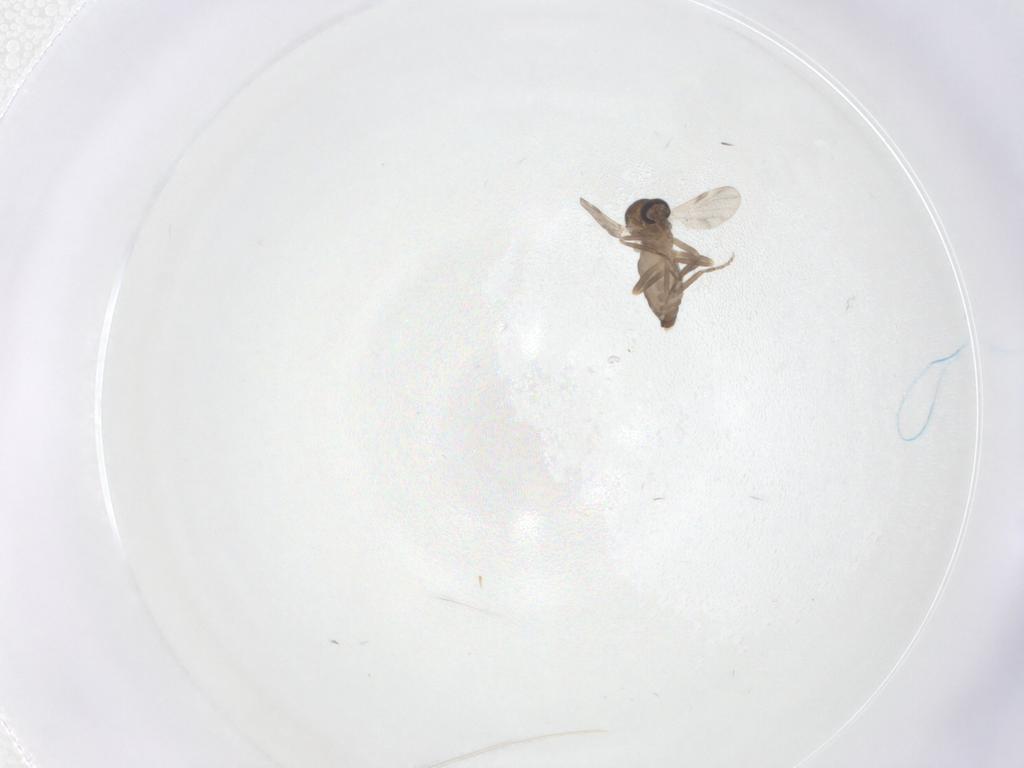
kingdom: Animalia
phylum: Arthropoda
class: Insecta
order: Diptera
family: Ceratopogonidae
